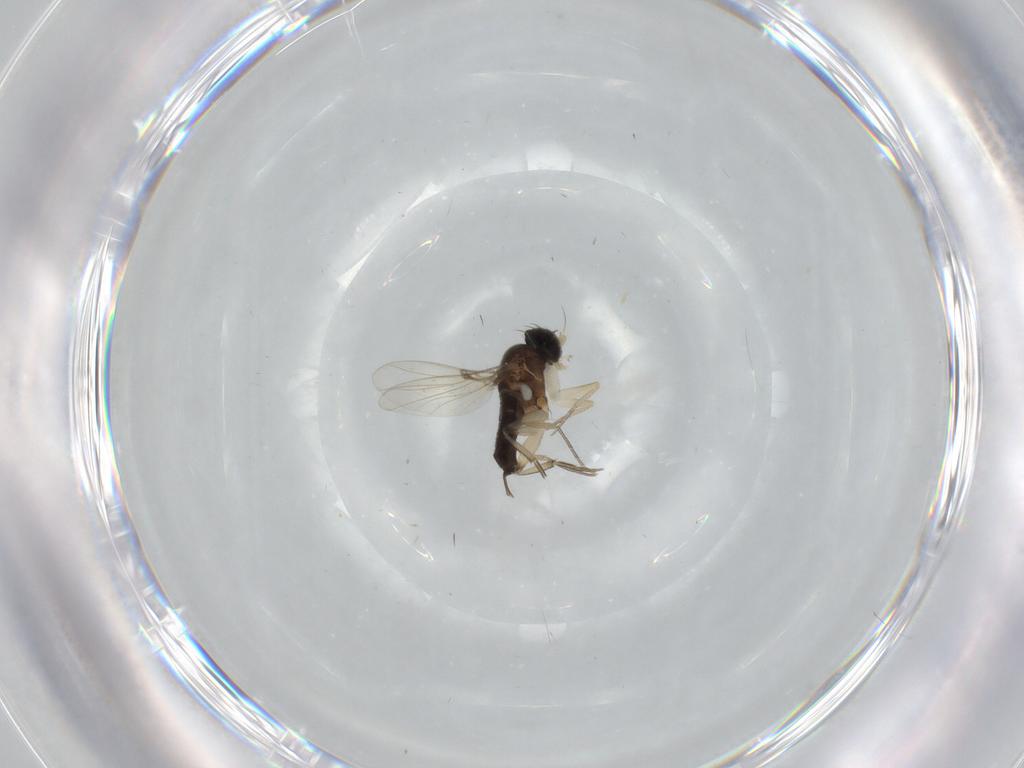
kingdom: Animalia
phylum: Arthropoda
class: Insecta
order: Diptera
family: Phoridae
